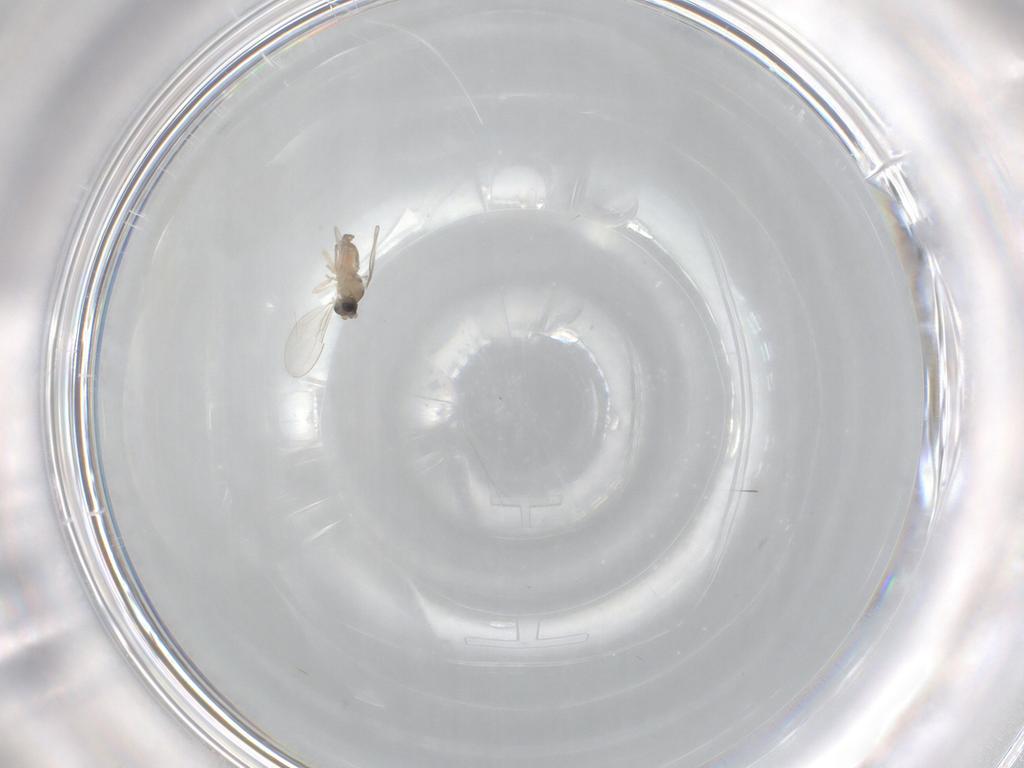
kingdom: Animalia
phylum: Arthropoda
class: Insecta
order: Diptera
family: Cecidomyiidae
